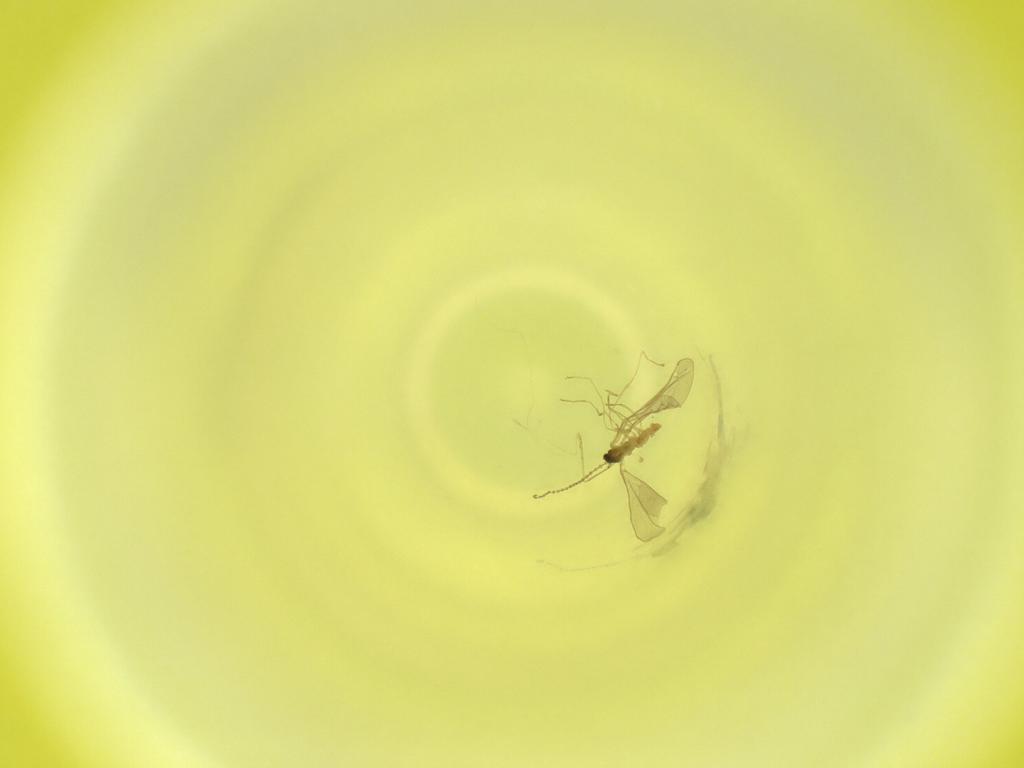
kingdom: Animalia
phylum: Arthropoda
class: Insecta
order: Diptera
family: Cecidomyiidae
